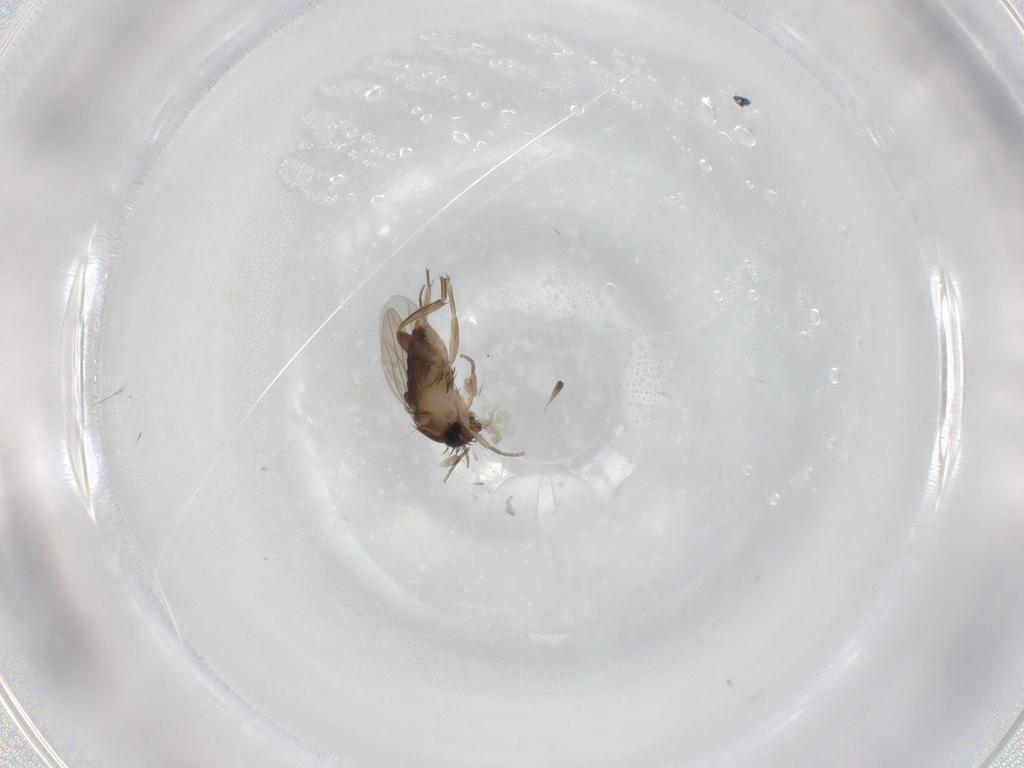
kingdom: Animalia
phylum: Arthropoda
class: Insecta
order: Diptera
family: Phoridae
